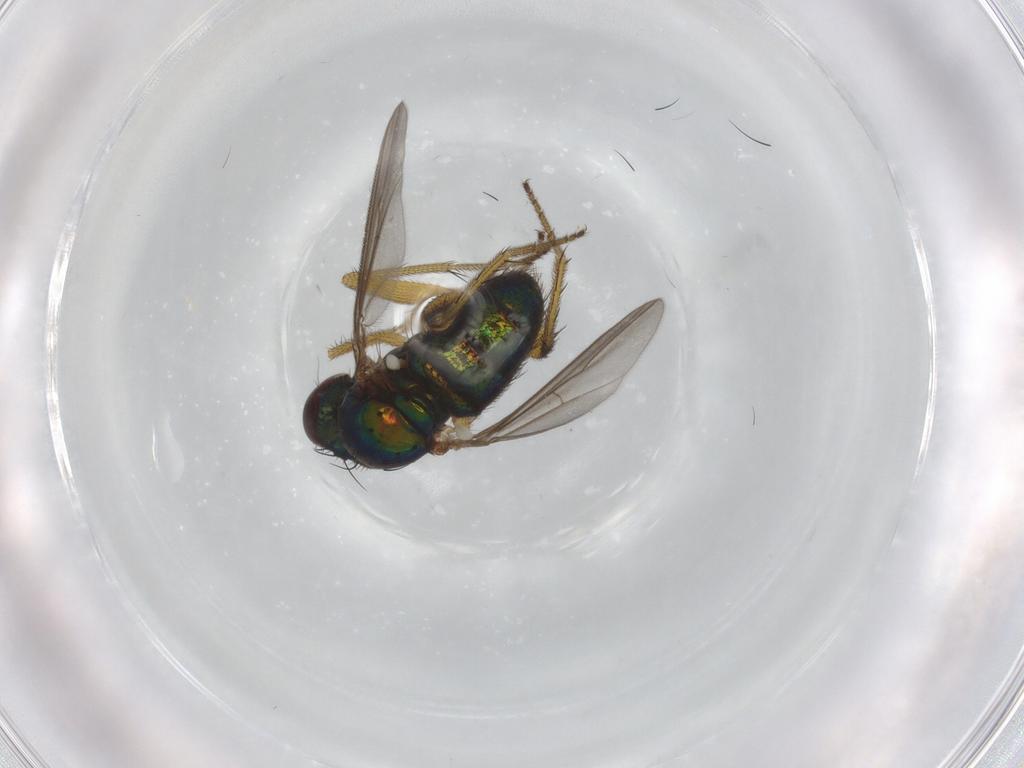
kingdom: Animalia
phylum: Arthropoda
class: Insecta
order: Diptera
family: Dolichopodidae
